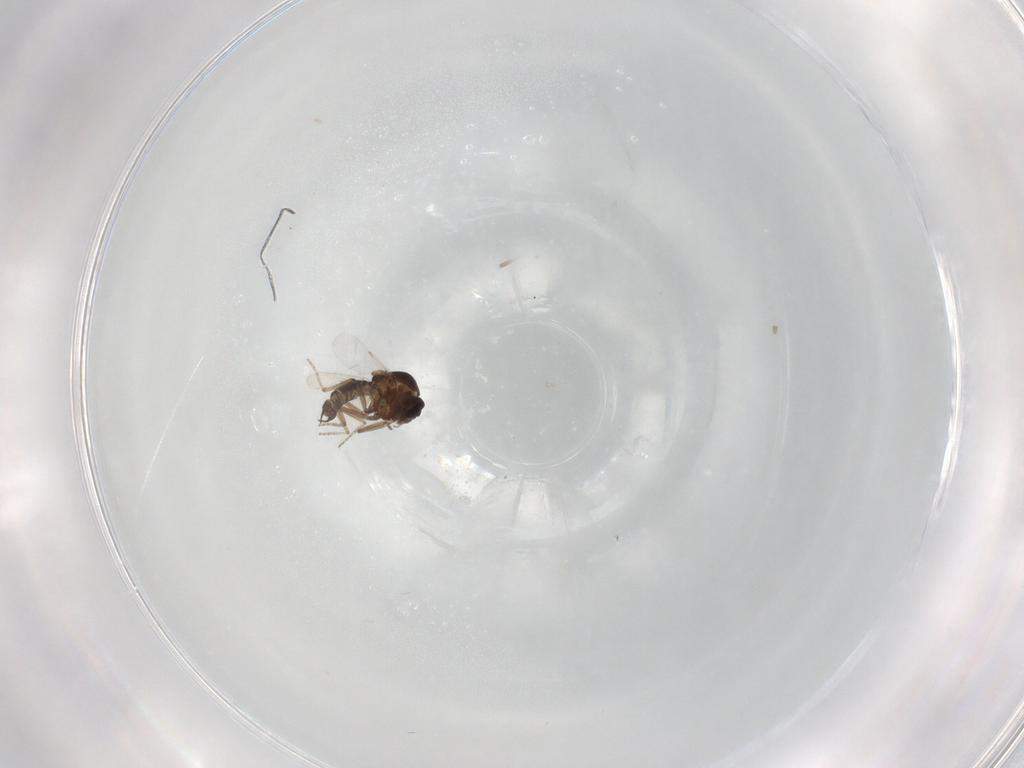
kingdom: Animalia
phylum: Arthropoda
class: Insecta
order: Diptera
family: Ceratopogonidae
